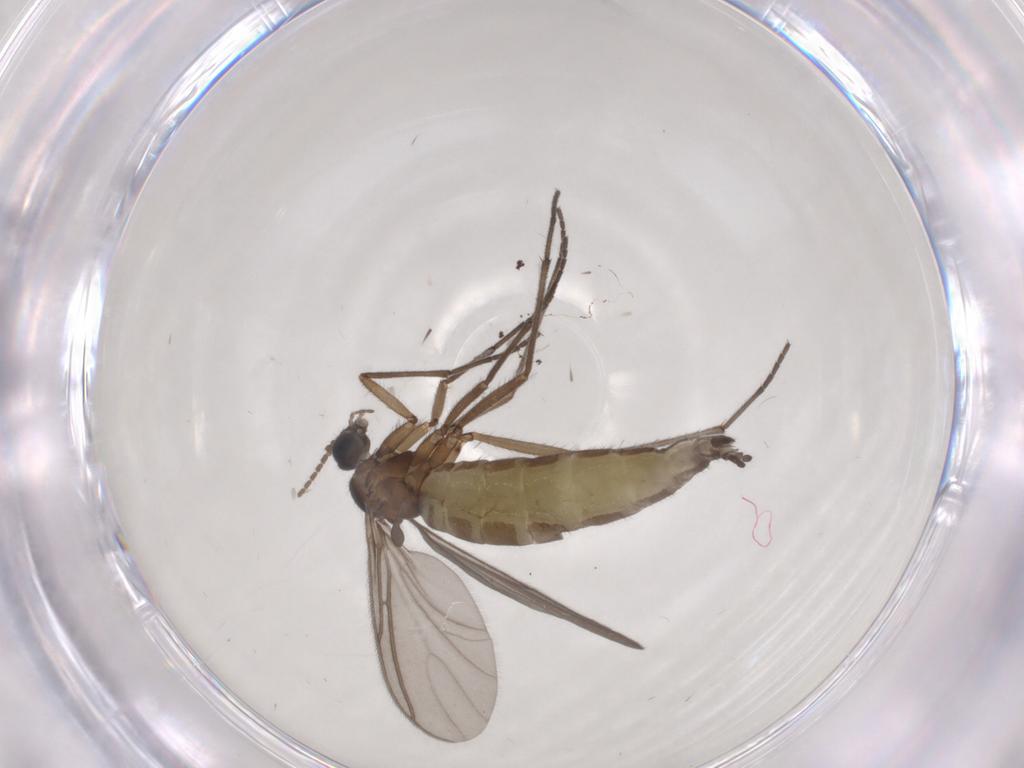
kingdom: Animalia
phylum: Arthropoda
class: Insecta
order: Diptera
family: Sciaridae
